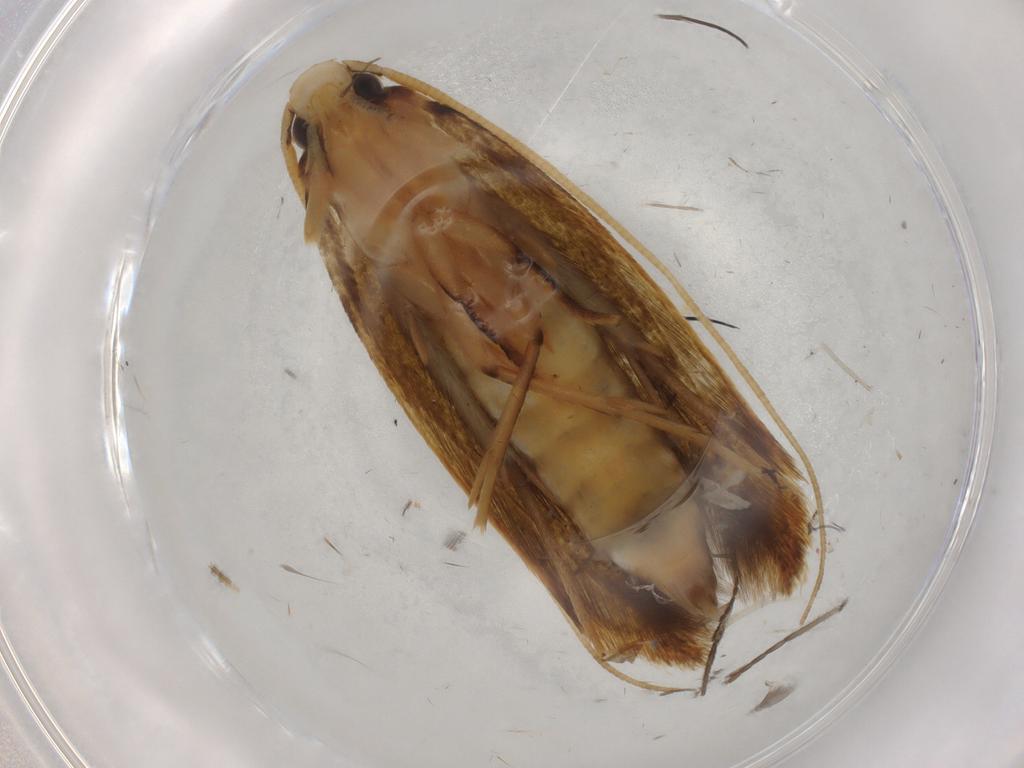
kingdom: Animalia
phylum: Arthropoda
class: Insecta
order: Lepidoptera
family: Tineidae
